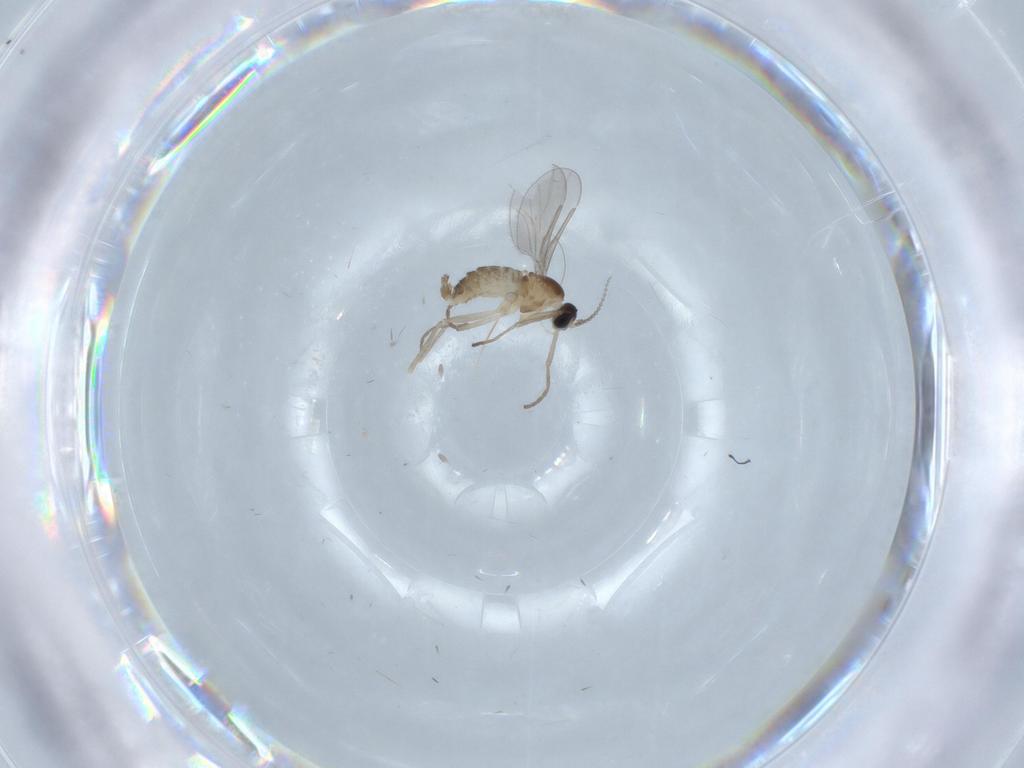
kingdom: Animalia
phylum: Arthropoda
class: Insecta
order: Diptera
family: Cecidomyiidae
